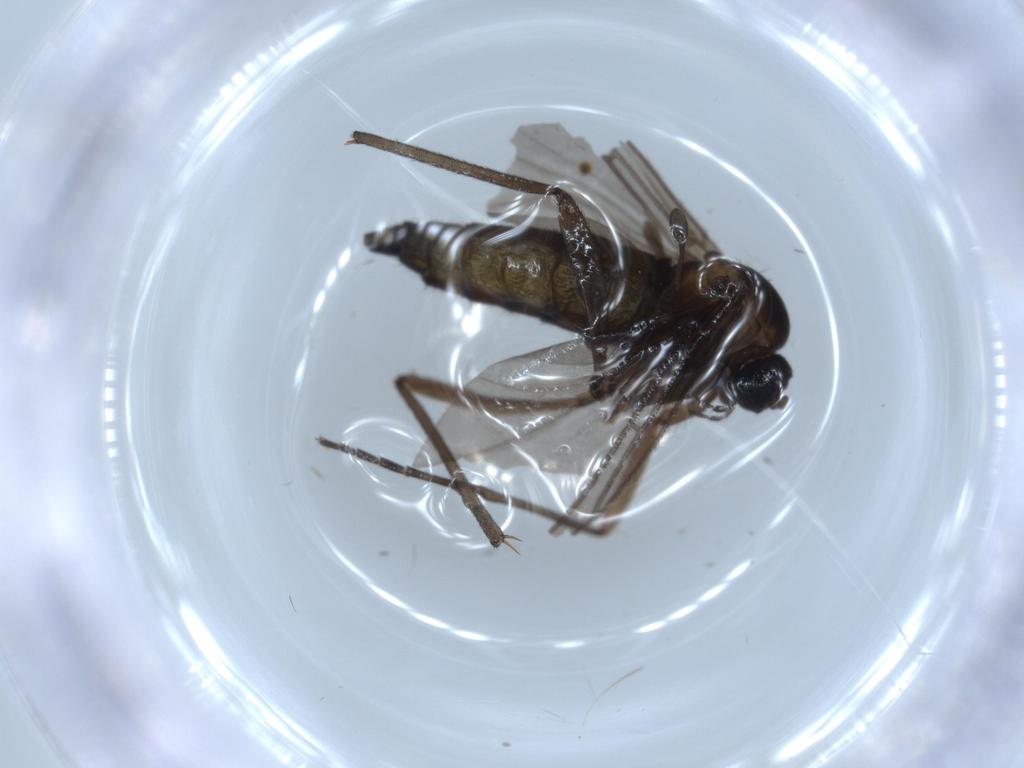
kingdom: Animalia
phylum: Arthropoda
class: Insecta
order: Diptera
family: Sciaridae
